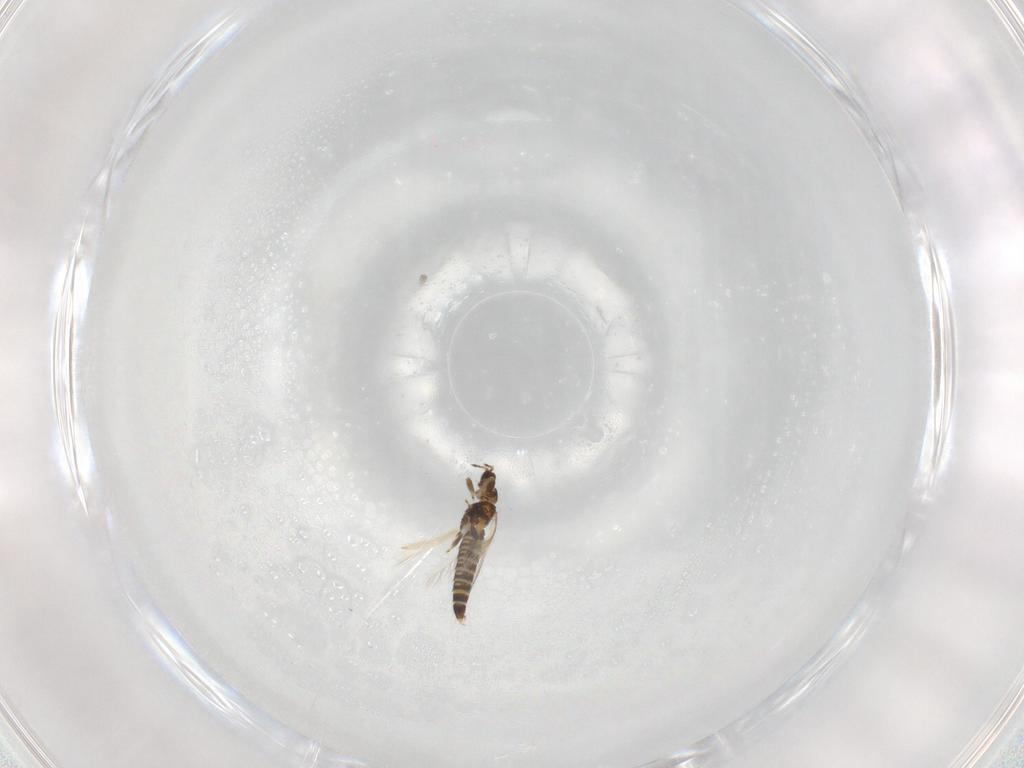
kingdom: Animalia
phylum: Arthropoda
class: Insecta
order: Thysanoptera
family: Thripidae
